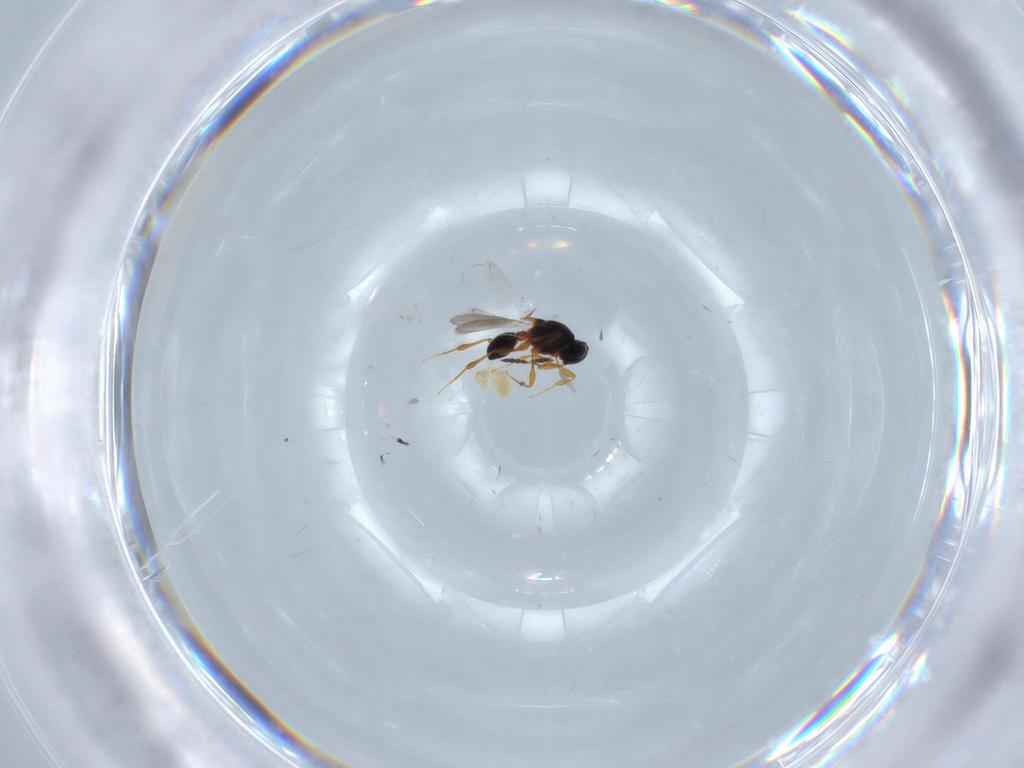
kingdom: Animalia
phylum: Arthropoda
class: Insecta
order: Hymenoptera
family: Platygastridae
